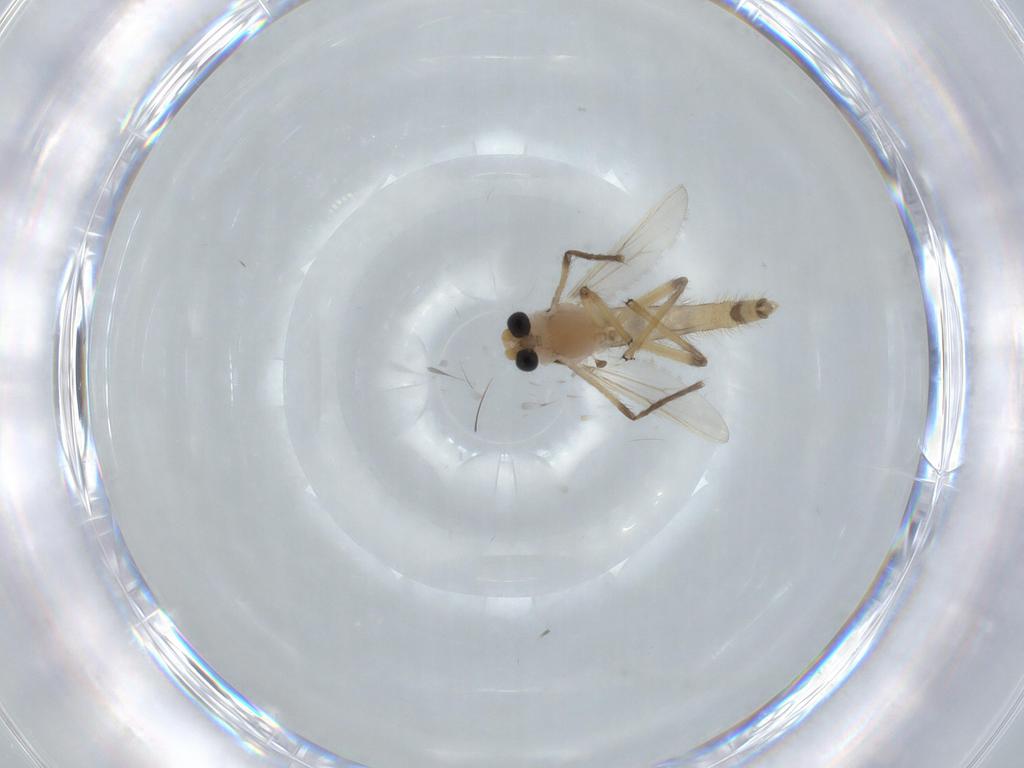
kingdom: Animalia
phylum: Arthropoda
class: Insecta
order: Diptera
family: Chironomidae
